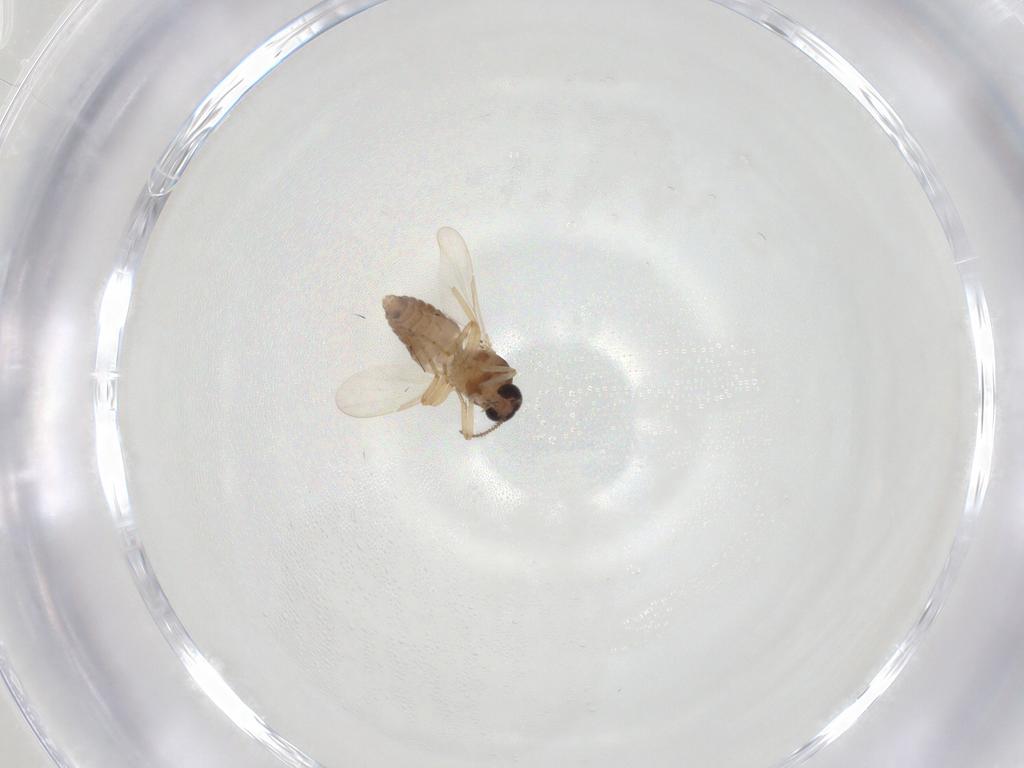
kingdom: Animalia
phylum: Arthropoda
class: Insecta
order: Diptera
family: Ceratopogonidae
